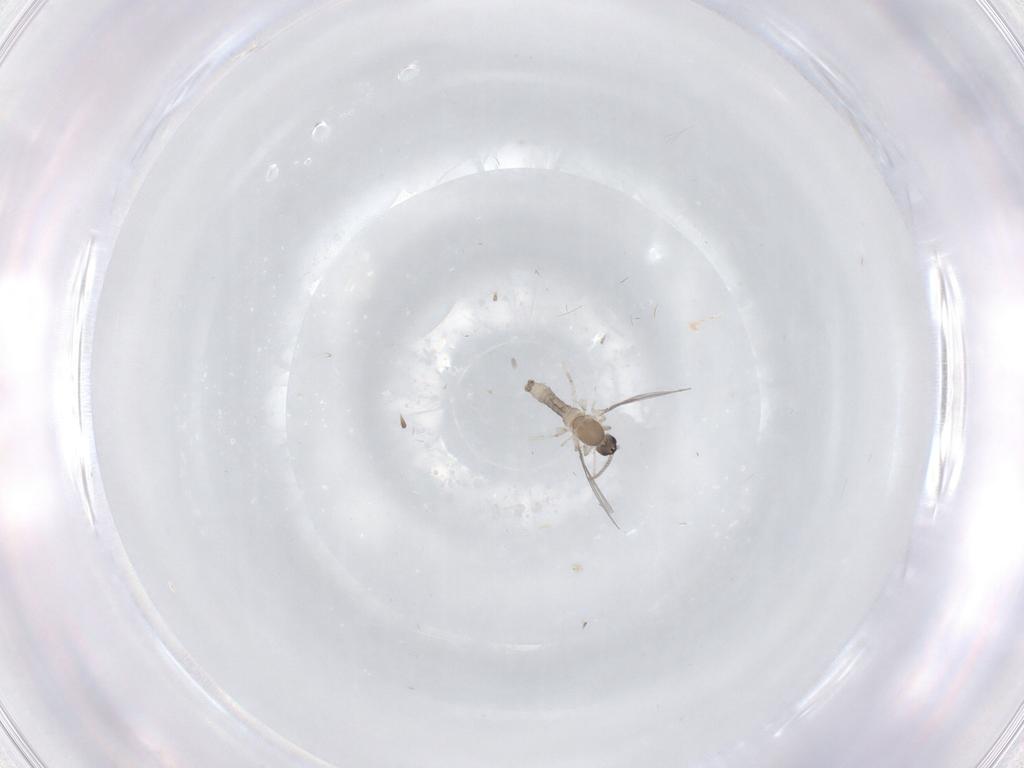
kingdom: Animalia
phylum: Arthropoda
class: Insecta
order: Diptera
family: Cecidomyiidae
